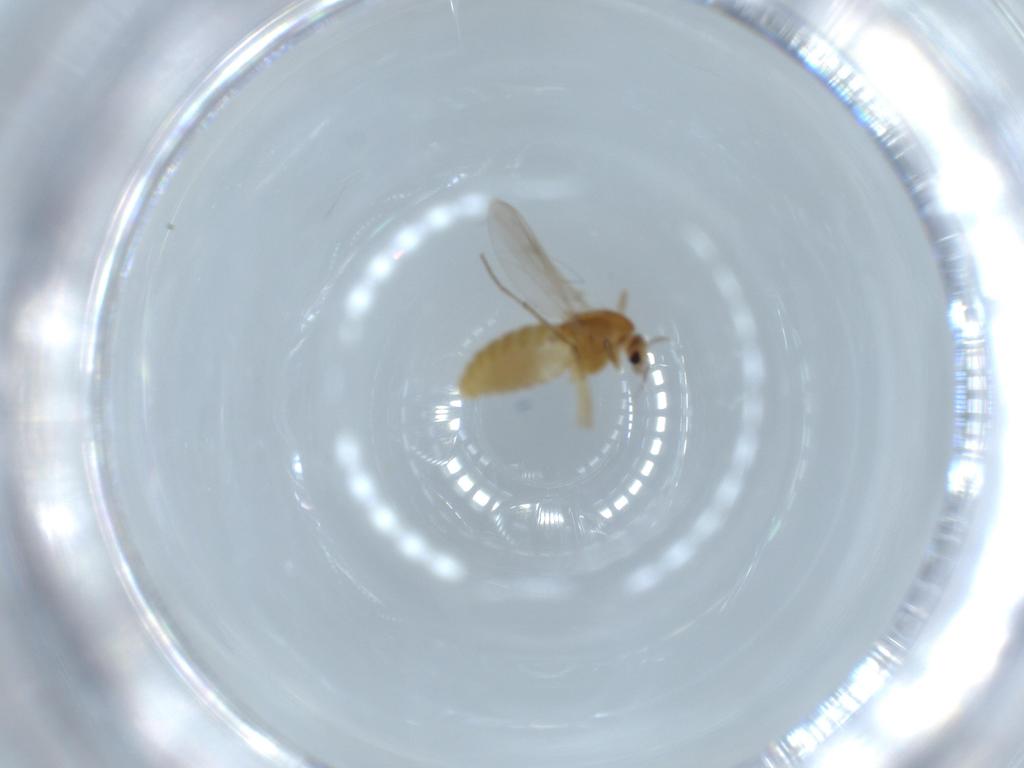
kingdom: Animalia
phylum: Arthropoda
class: Insecta
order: Diptera
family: Chironomidae
